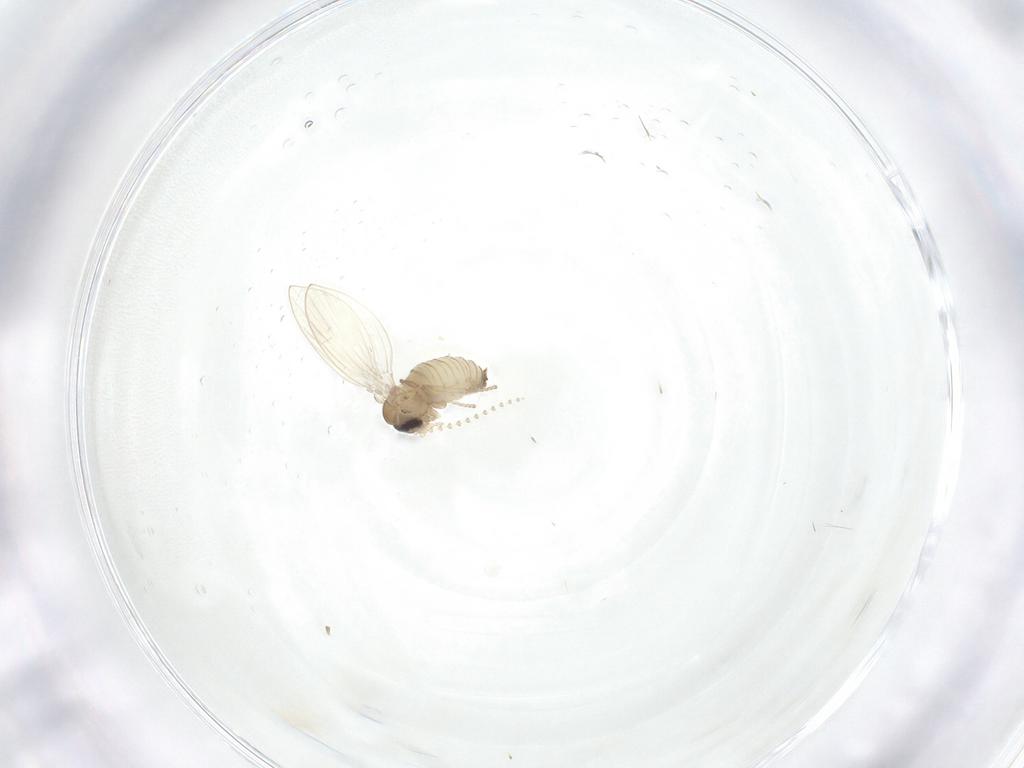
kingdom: Animalia
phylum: Arthropoda
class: Insecta
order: Diptera
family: Psychodidae
